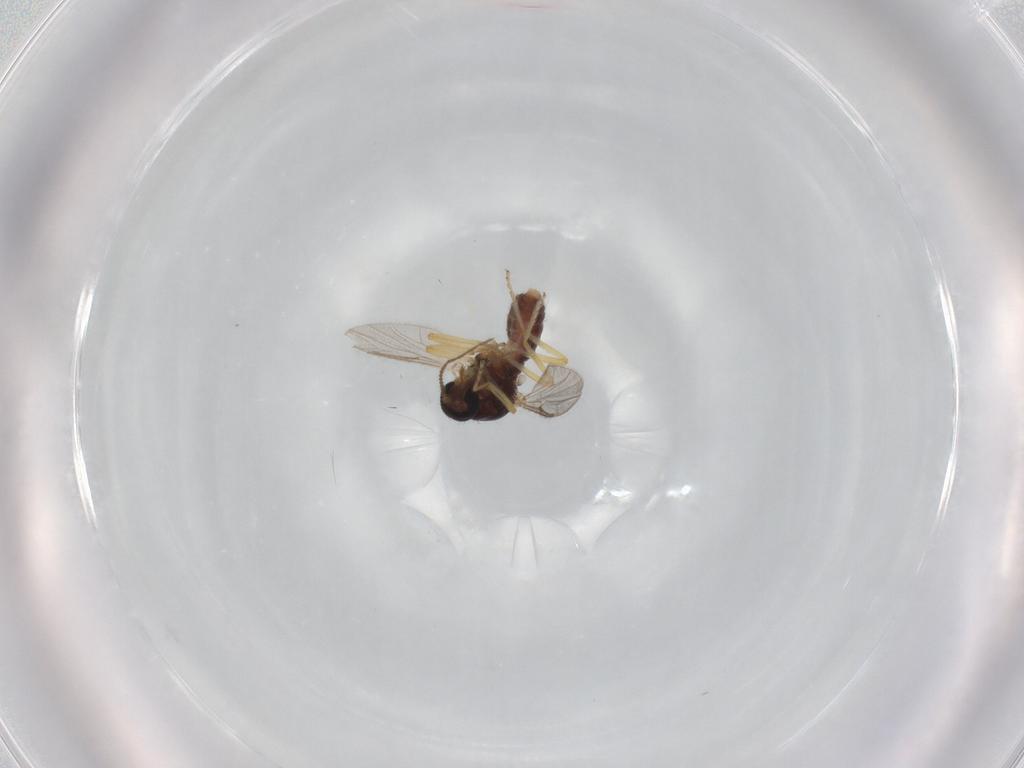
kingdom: Animalia
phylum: Arthropoda
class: Insecta
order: Diptera
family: Ceratopogonidae
